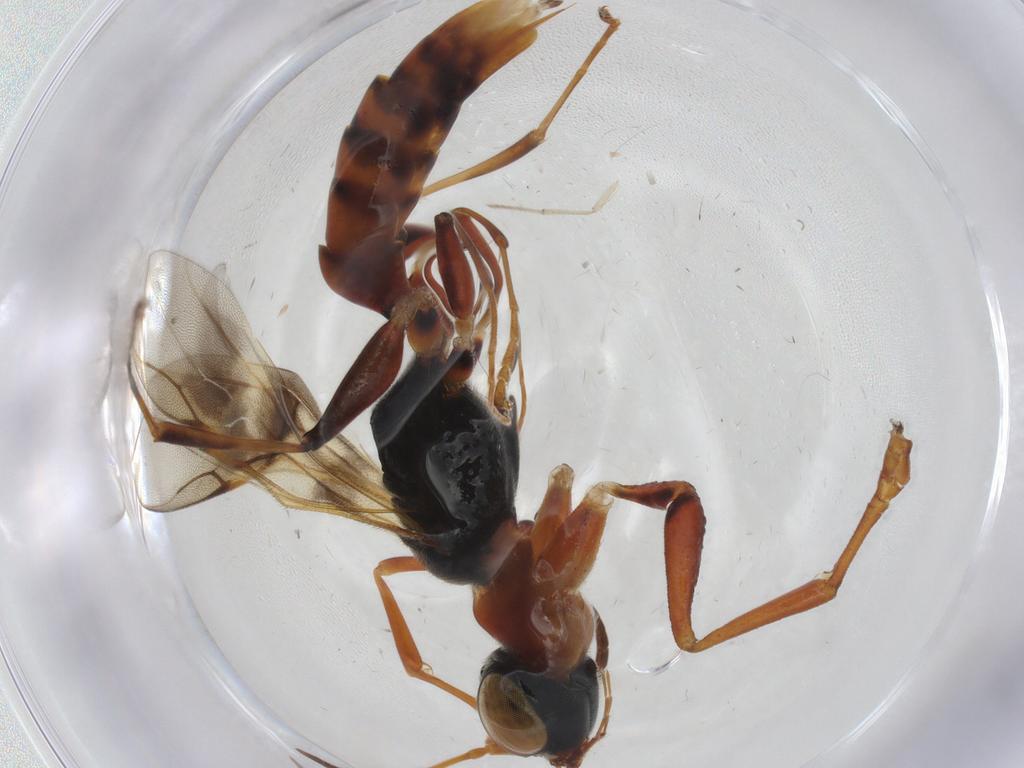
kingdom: Animalia
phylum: Arthropoda
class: Insecta
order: Hymenoptera
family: Dryinidae
